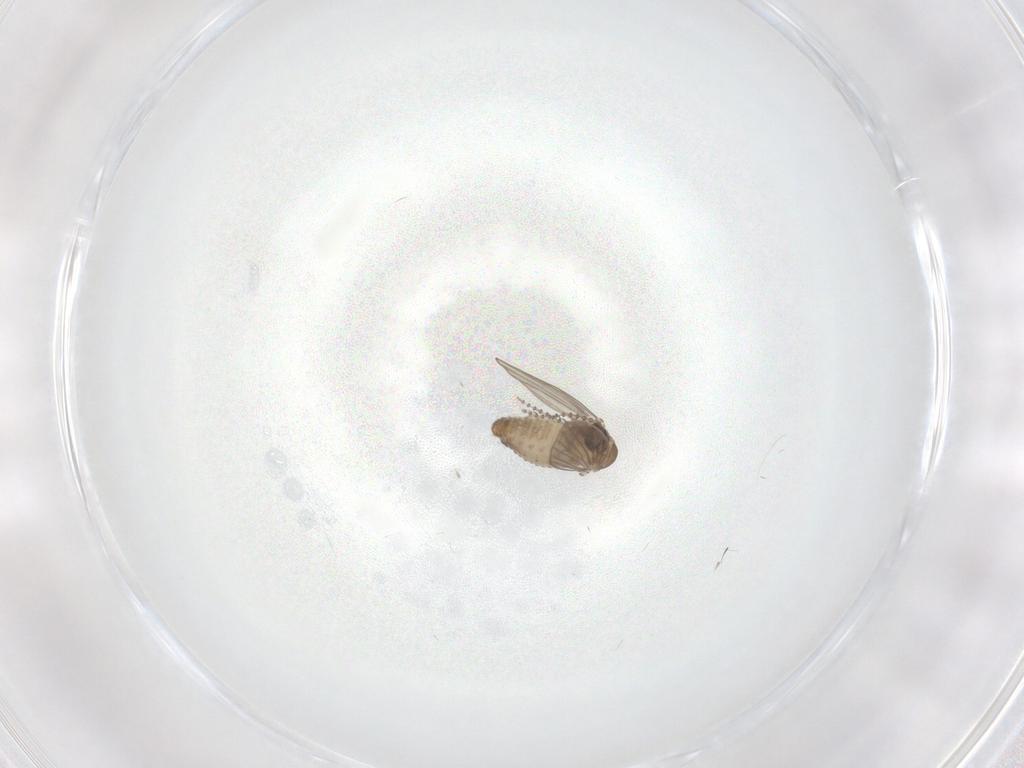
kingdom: Animalia
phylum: Arthropoda
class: Insecta
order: Diptera
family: Psychodidae
